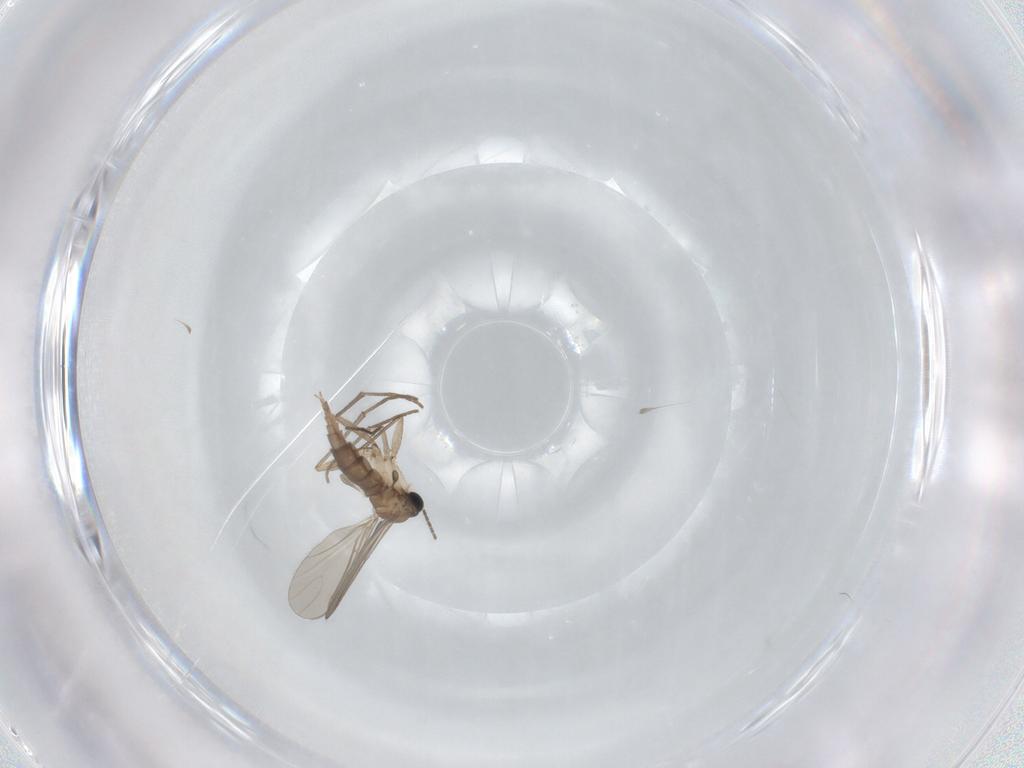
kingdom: Animalia
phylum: Arthropoda
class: Insecta
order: Diptera
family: Sciaridae
